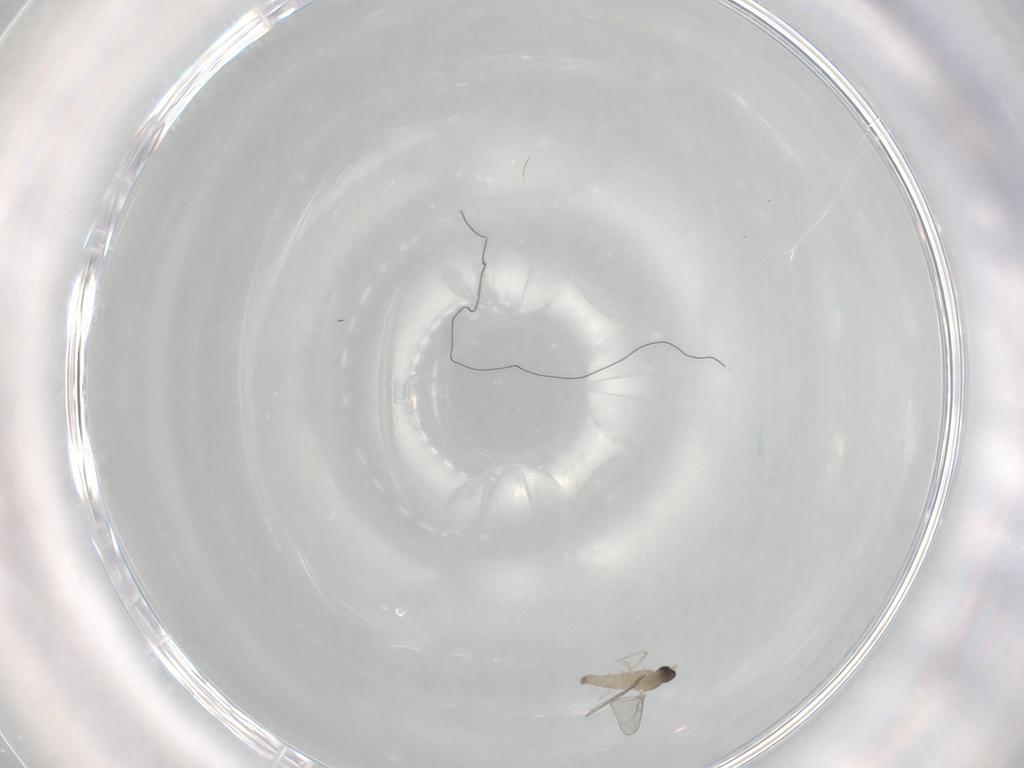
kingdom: Animalia
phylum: Arthropoda
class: Insecta
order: Diptera
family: Cecidomyiidae
